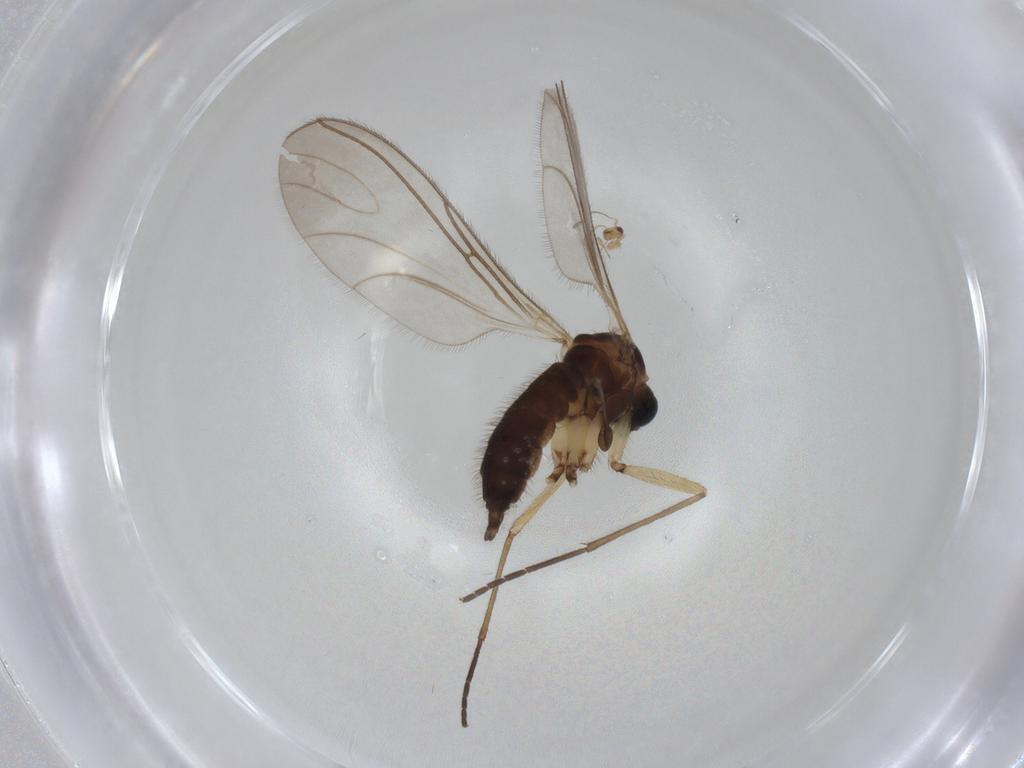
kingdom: Animalia
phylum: Arthropoda
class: Insecta
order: Diptera
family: Sciaridae
